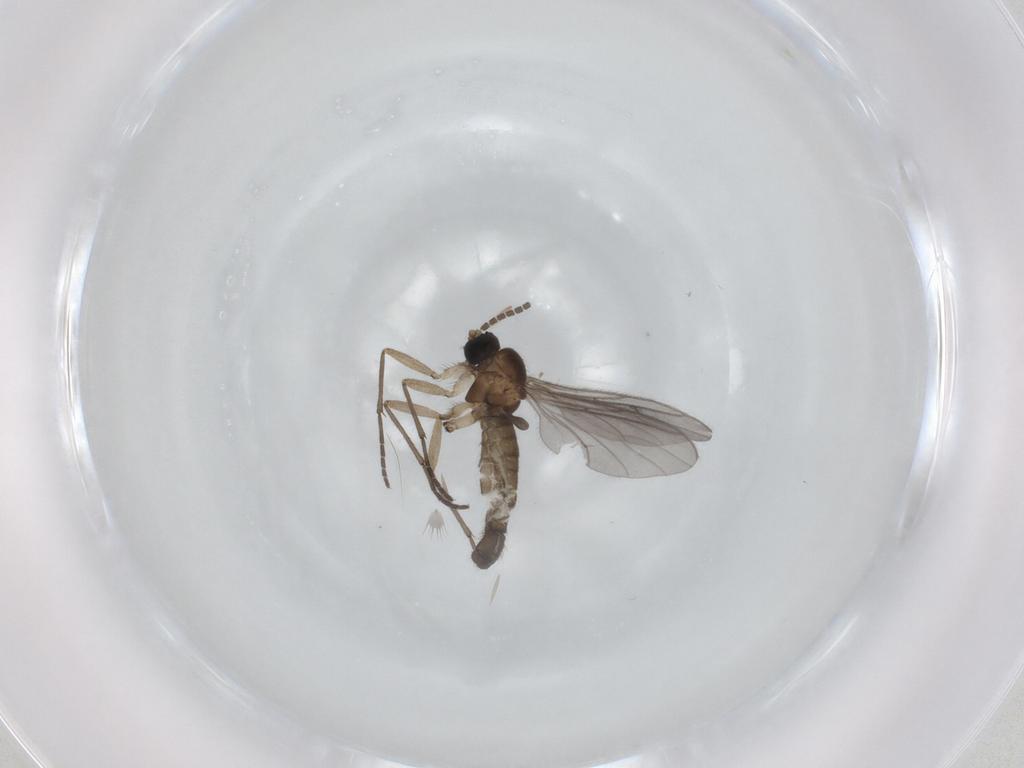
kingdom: Animalia
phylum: Arthropoda
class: Insecta
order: Diptera
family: Sciaridae
